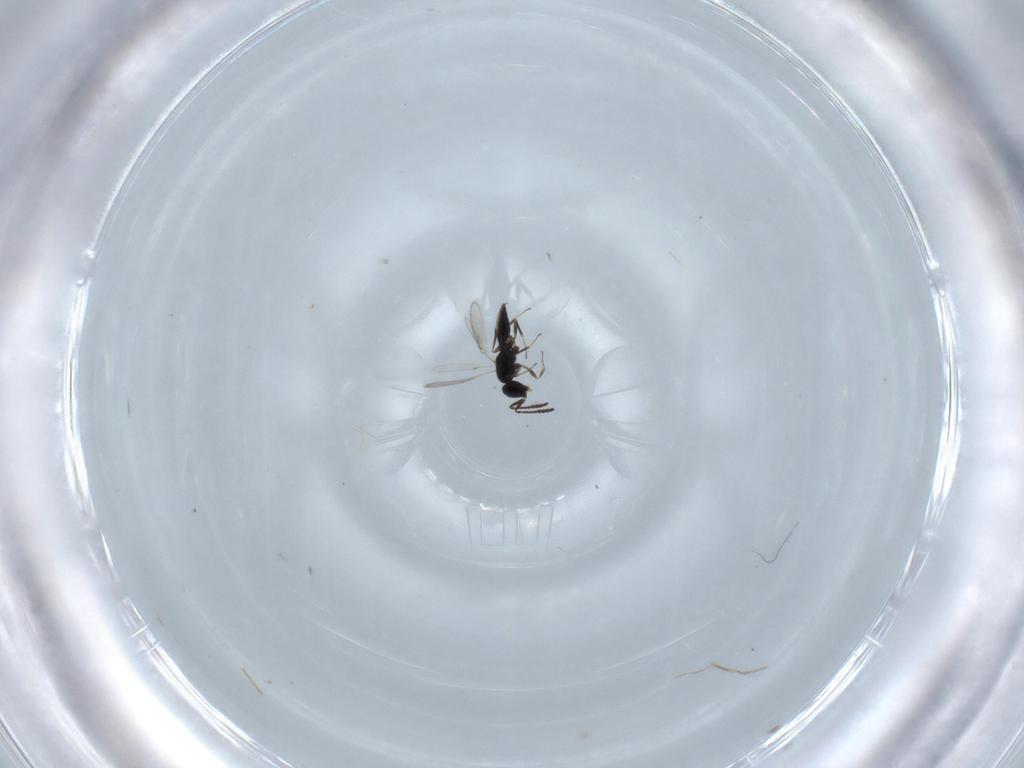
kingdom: Animalia
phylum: Arthropoda
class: Insecta
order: Hymenoptera
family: Scelionidae
